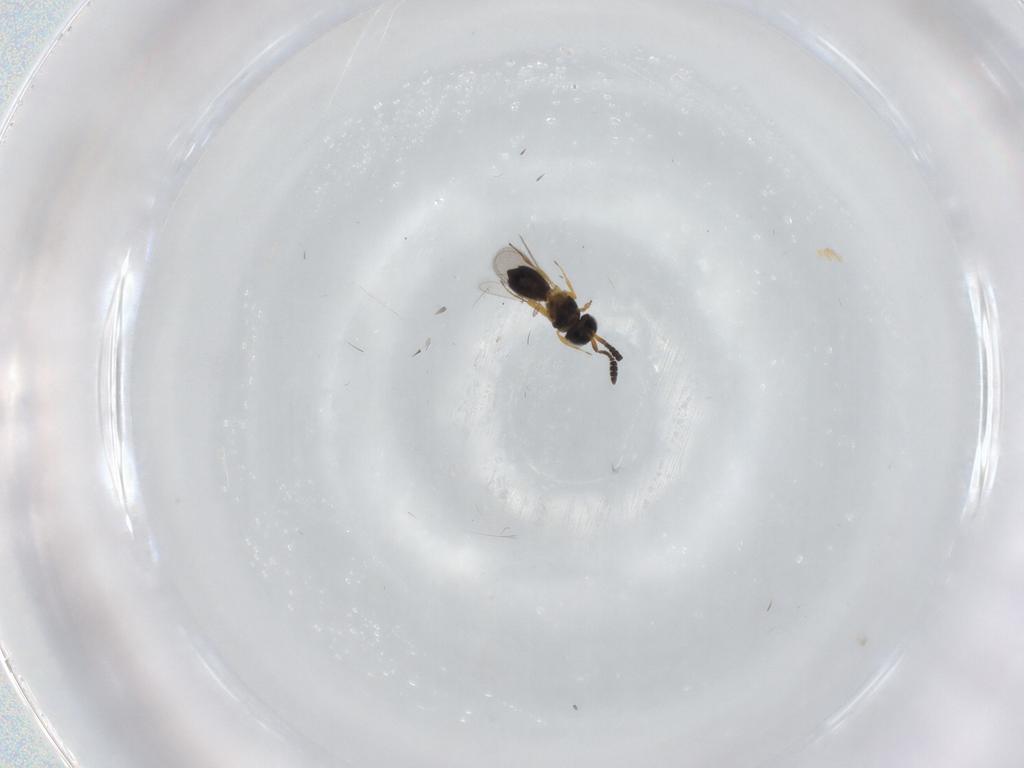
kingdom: Animalia
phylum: Arthropoda
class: Insecta
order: Hymenoptera
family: Scelionidae
